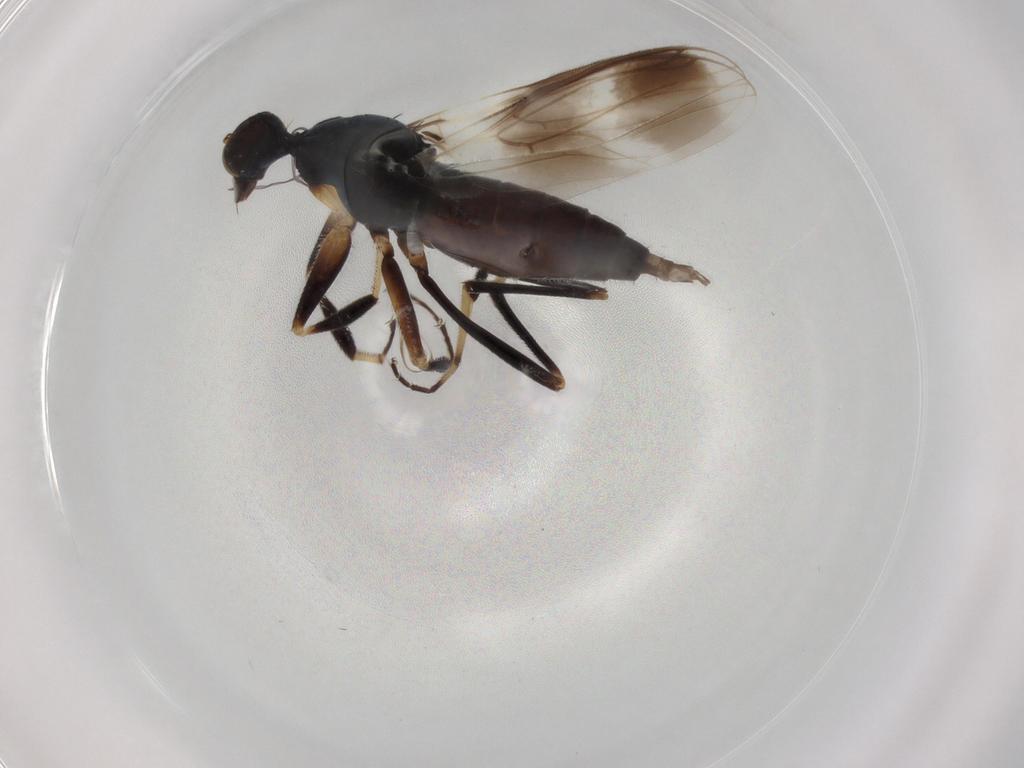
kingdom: Animalia
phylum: Arthropoda
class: Insecta
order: Diptera
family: Hybotidae
